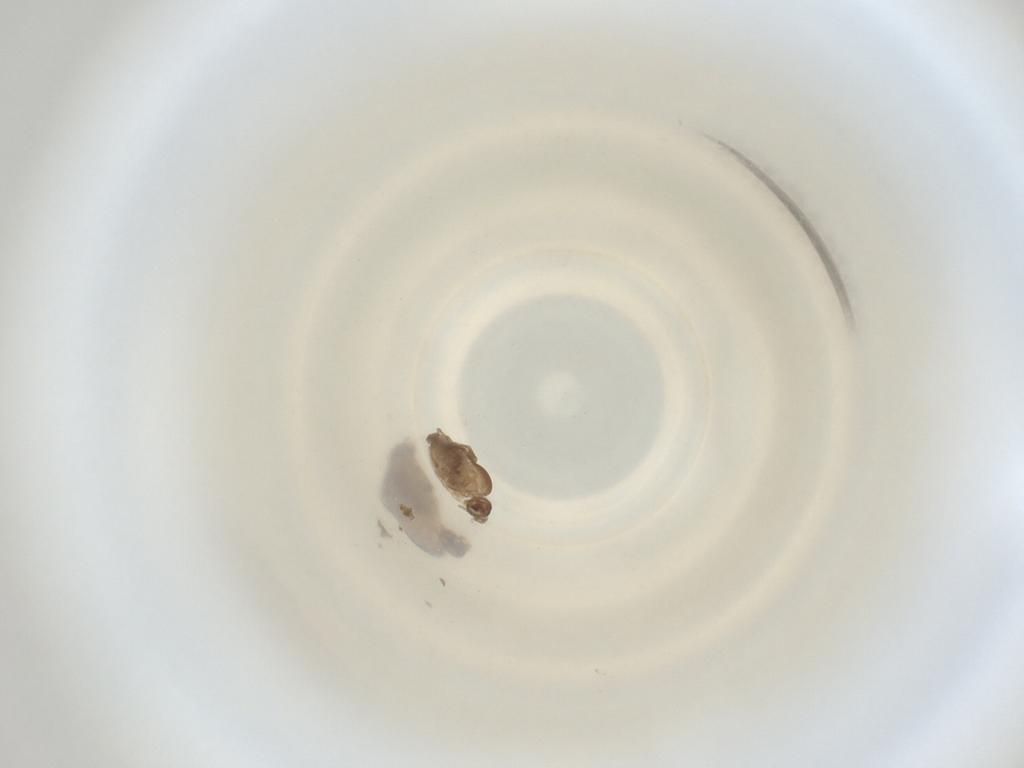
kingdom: Animalia
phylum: Arthropoda
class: Insecta
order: Diptera
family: Cecidomyiidae
